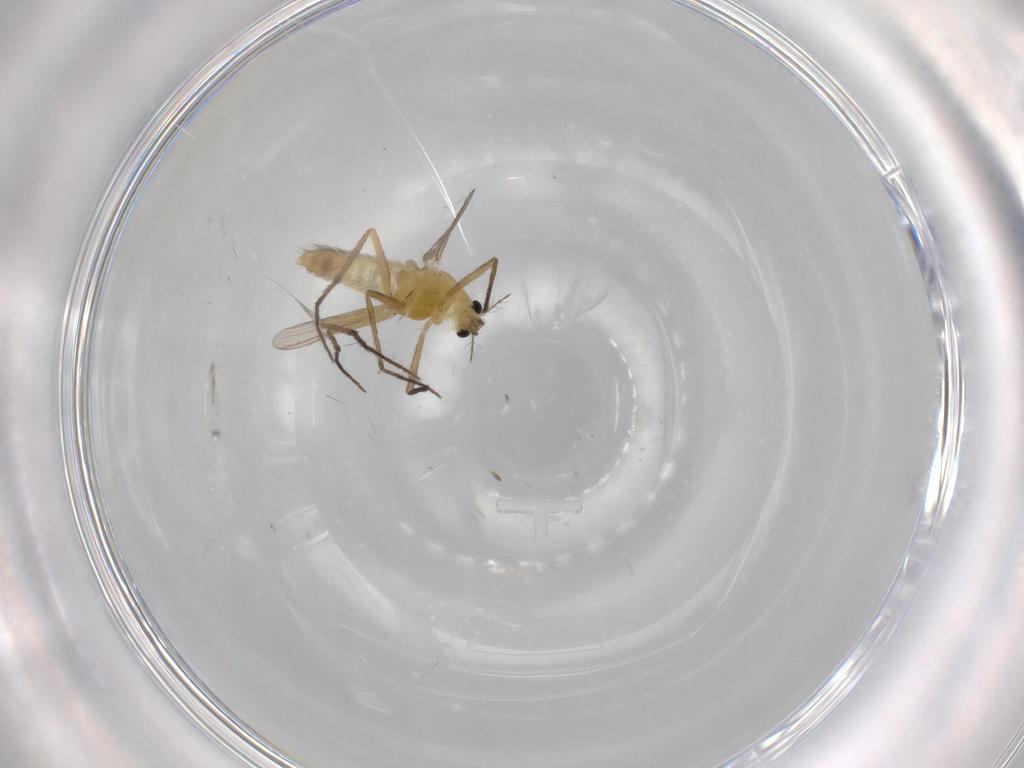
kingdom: Animalia
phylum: Arthropoda
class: Insecta
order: Diptera
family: Chironomidae
